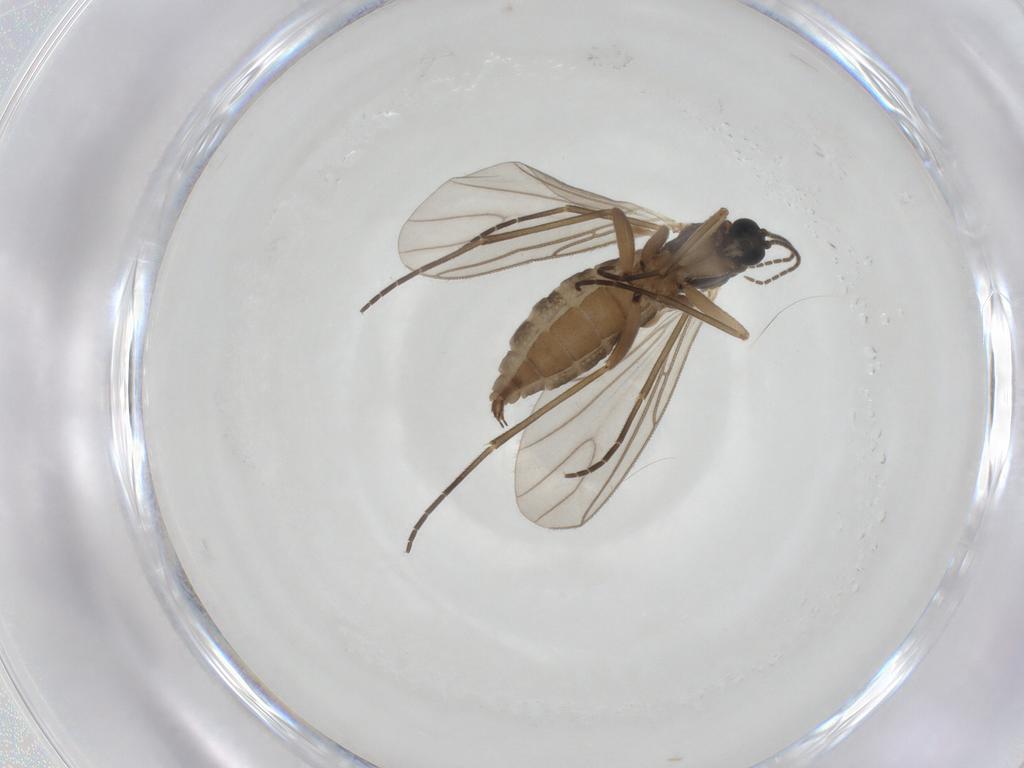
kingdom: Animalia
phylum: Arthropoda
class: Insecta
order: Diptera
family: Sciaridae
